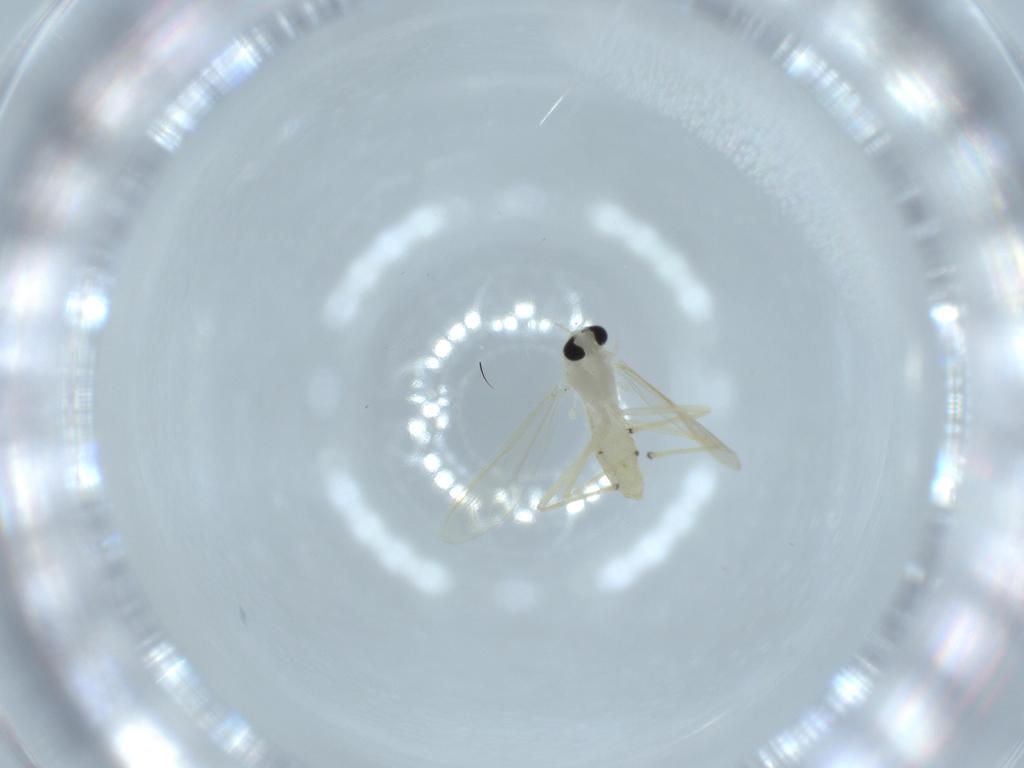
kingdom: Animalia
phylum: Arthropoda
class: Insecta
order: Diptera
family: Chironomidae
